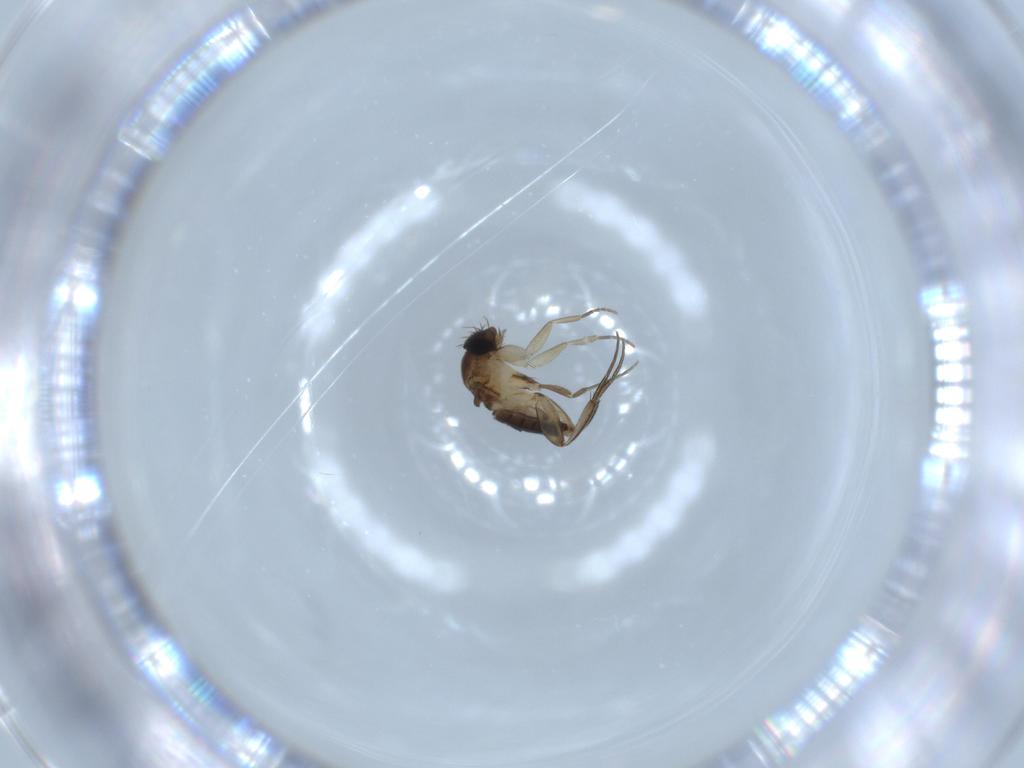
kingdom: Animalia
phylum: Arthropoda
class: Insecta
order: Diptera
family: Phoridae
